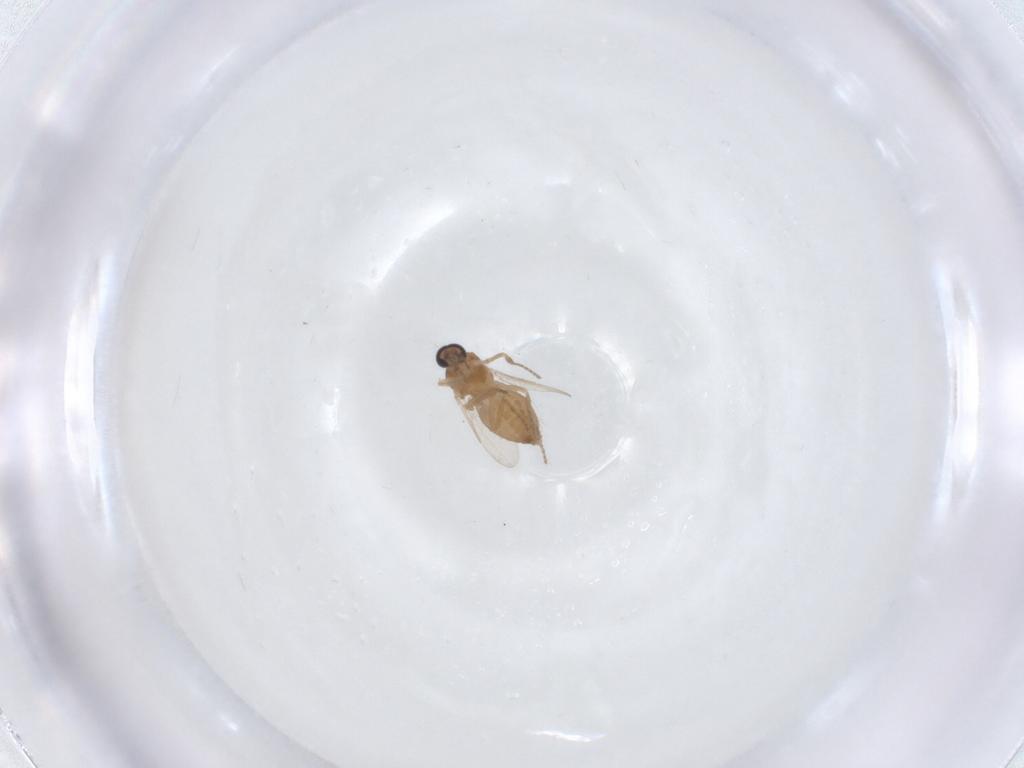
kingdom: Animalia
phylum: Arthropoda
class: Insecta
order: Diptera
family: Ceratopogonidae
